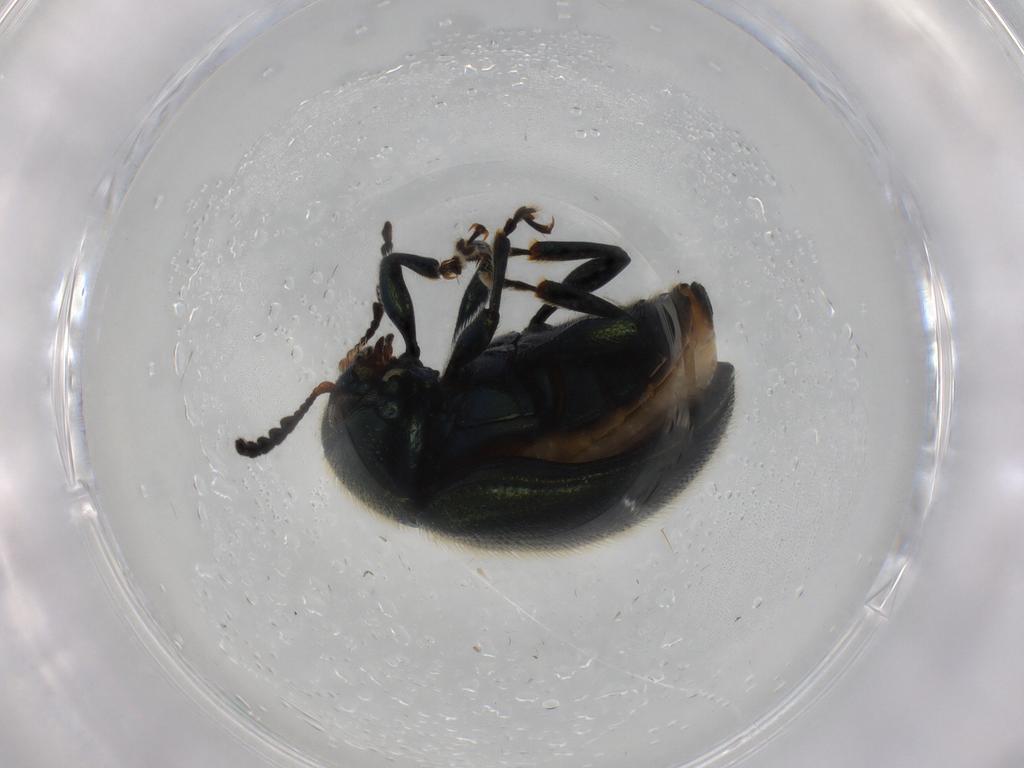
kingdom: Animalia
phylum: Arthropoda
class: Insecta
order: Coleoptera
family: Chrysomelidae
